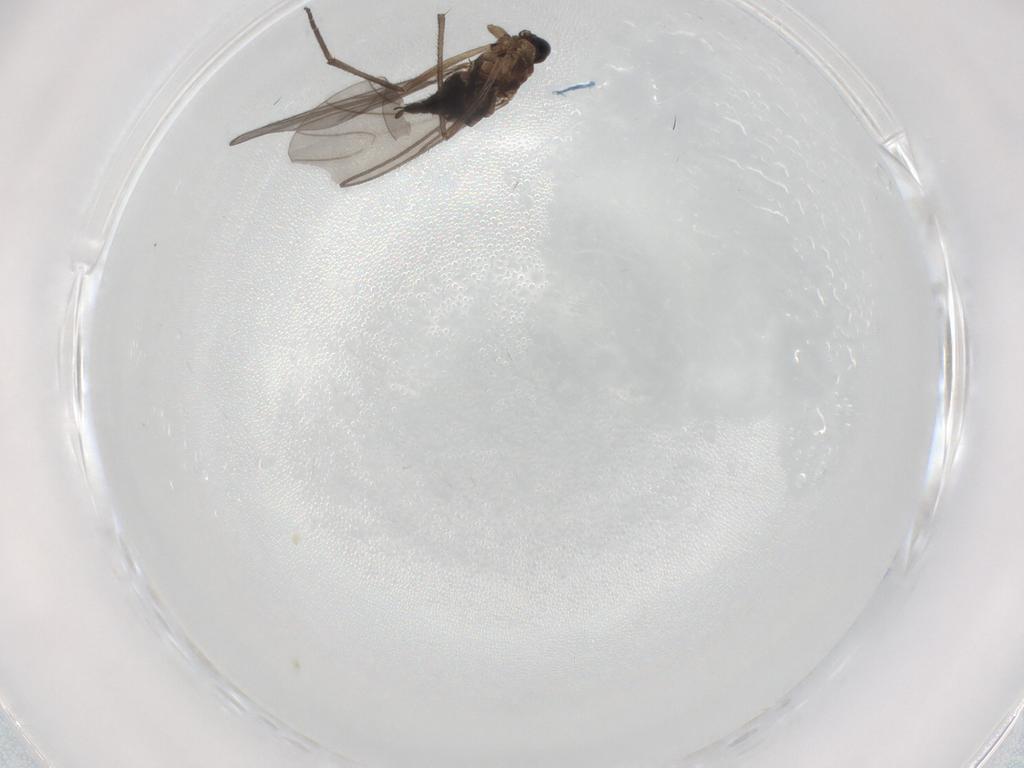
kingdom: Animalia
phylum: Arthropoda
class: Insecta
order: Diptera
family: Sciaridae
